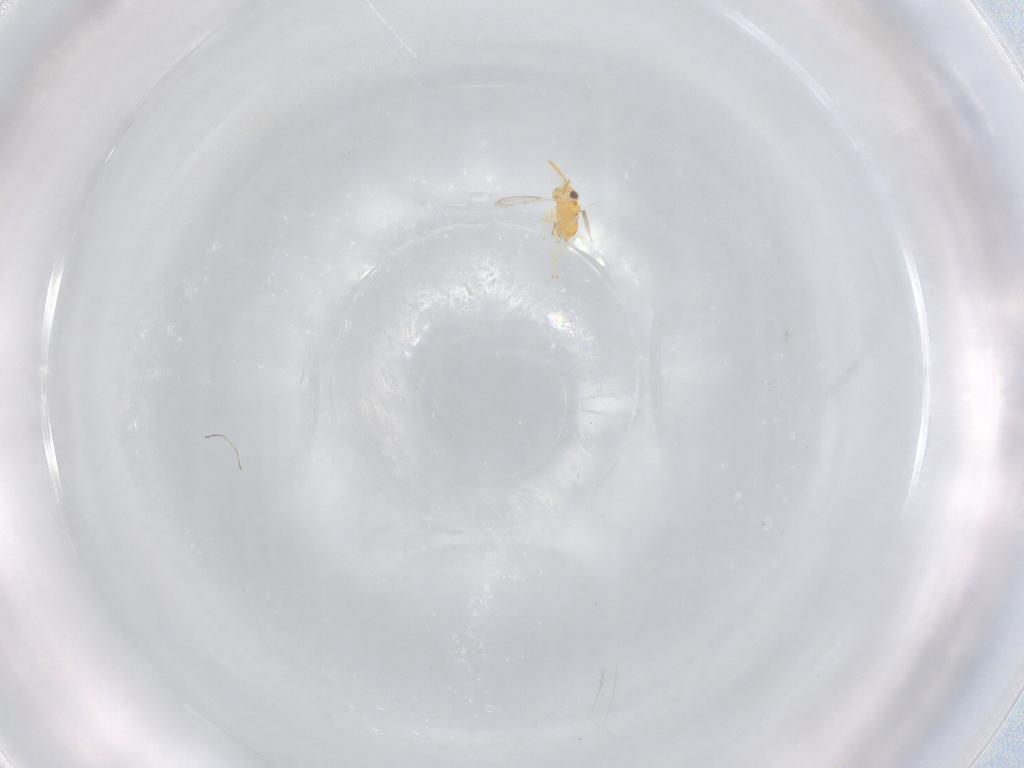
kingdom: Animalia
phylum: Arthropoda
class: Insecta
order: Hymenoptera
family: Aphelinidae
